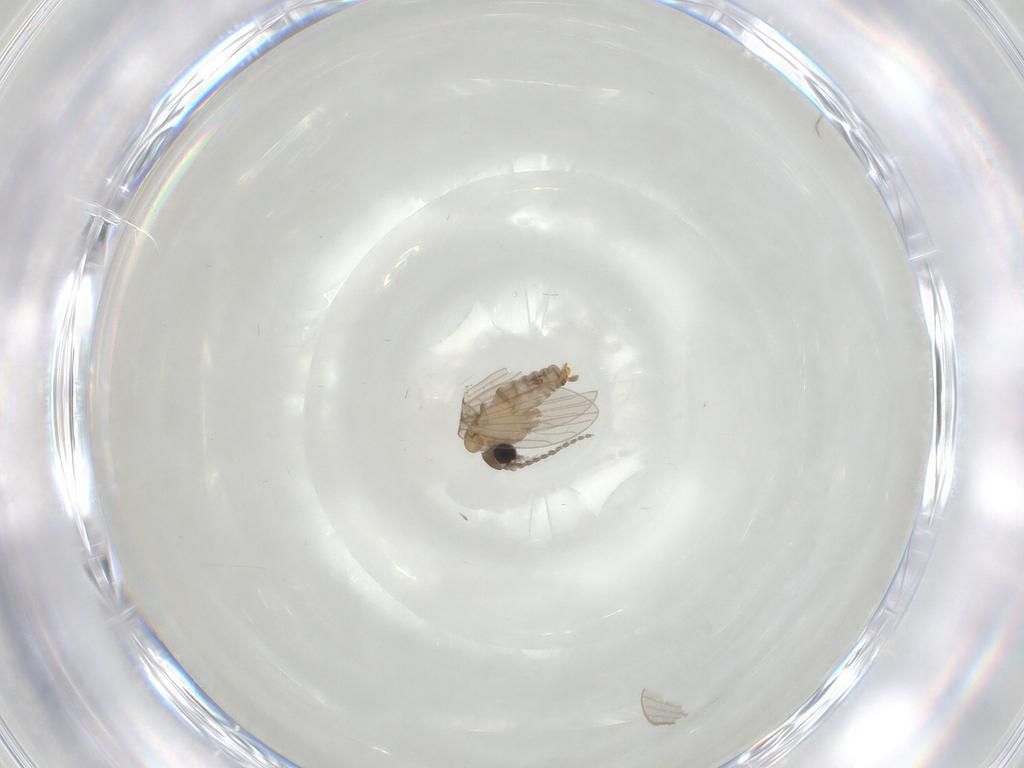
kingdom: Animalia
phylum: Arthropoda
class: Insecta
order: Diptera
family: Psychodidae
